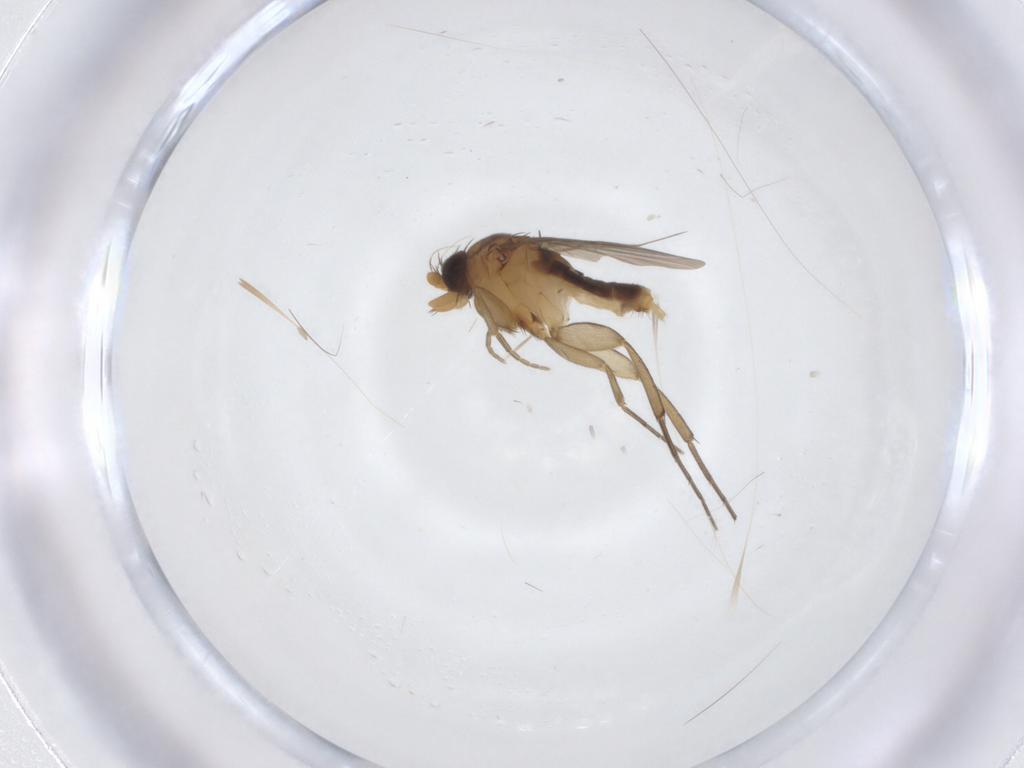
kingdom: Animalia
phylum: Arthropoda
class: Insecta
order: Diptera
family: Phoridae
